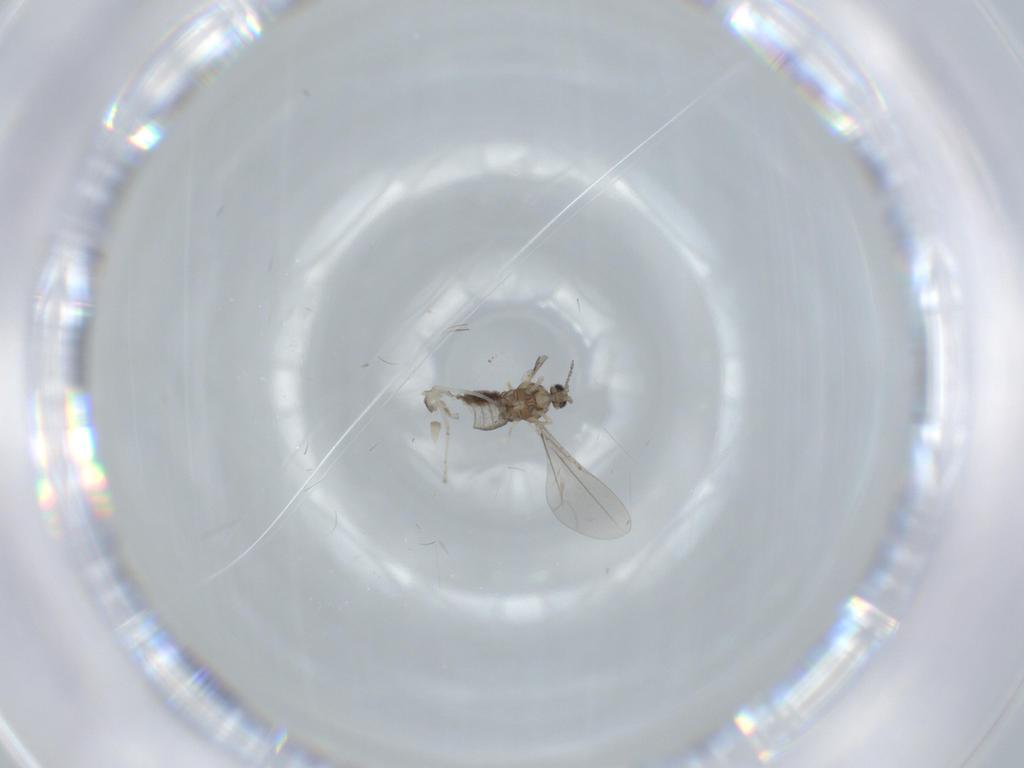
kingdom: Animalia
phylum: Arthropoda
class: Insecta
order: Diptera
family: Cecidomyiidae
